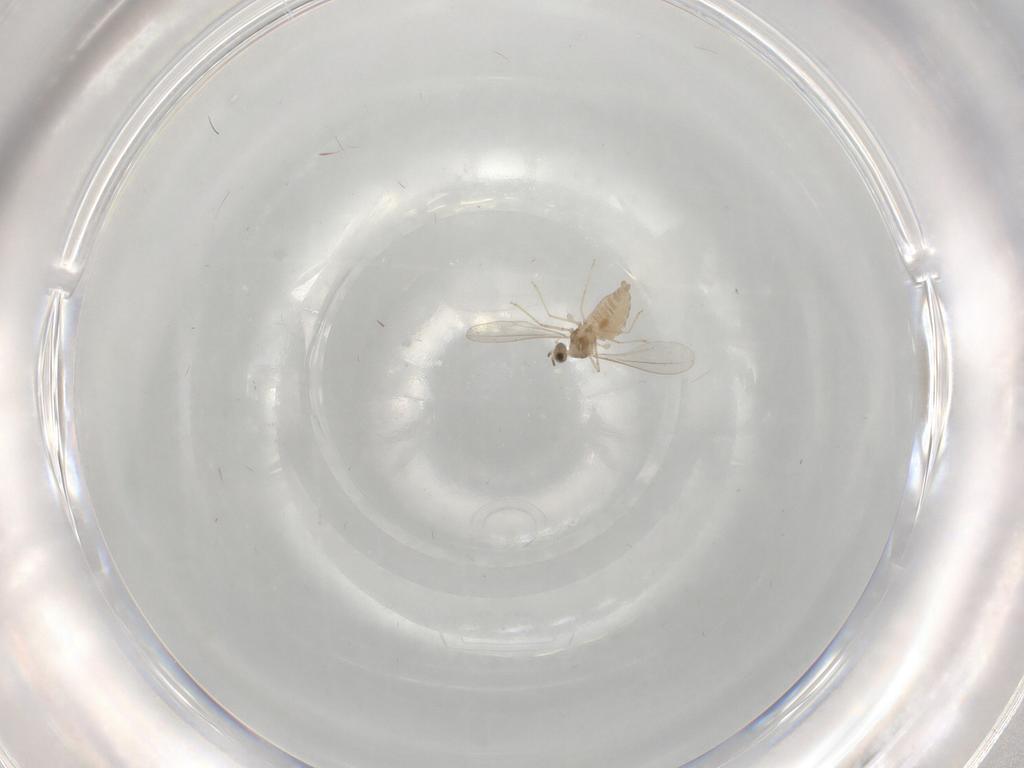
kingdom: Animalia
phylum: Arthropoda
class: Insecta
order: Diptera
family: Cecidomyiidae
